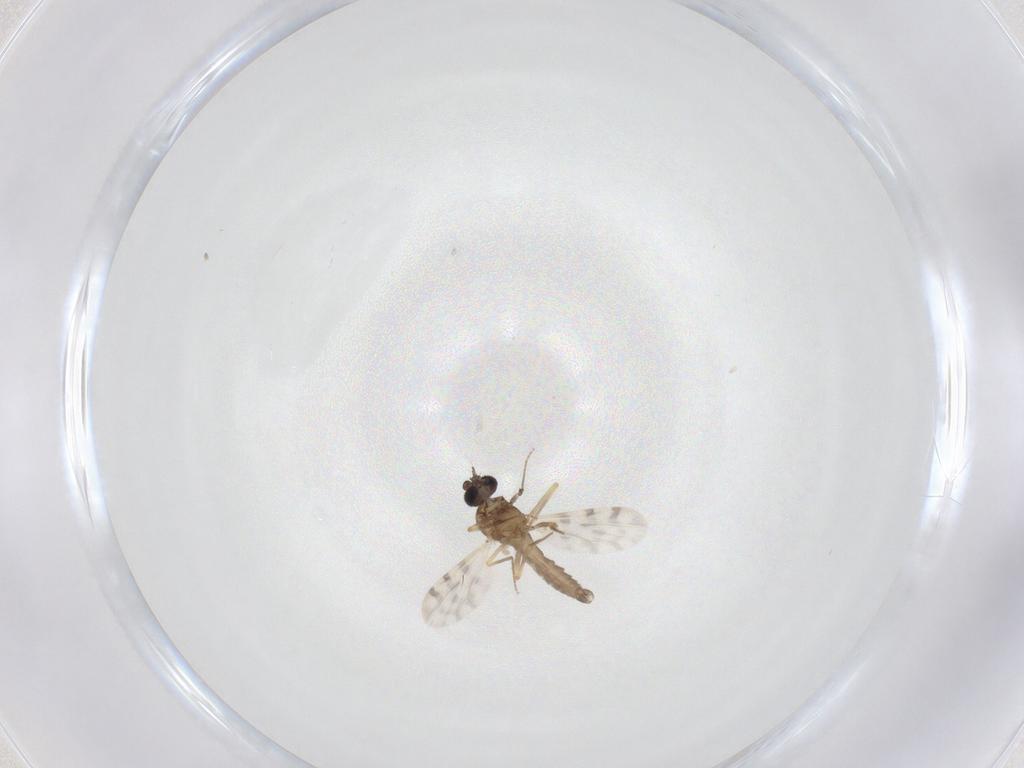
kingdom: Animalia
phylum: Arthropoda
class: Insecta
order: Diptera
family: Ceratopogonidae
